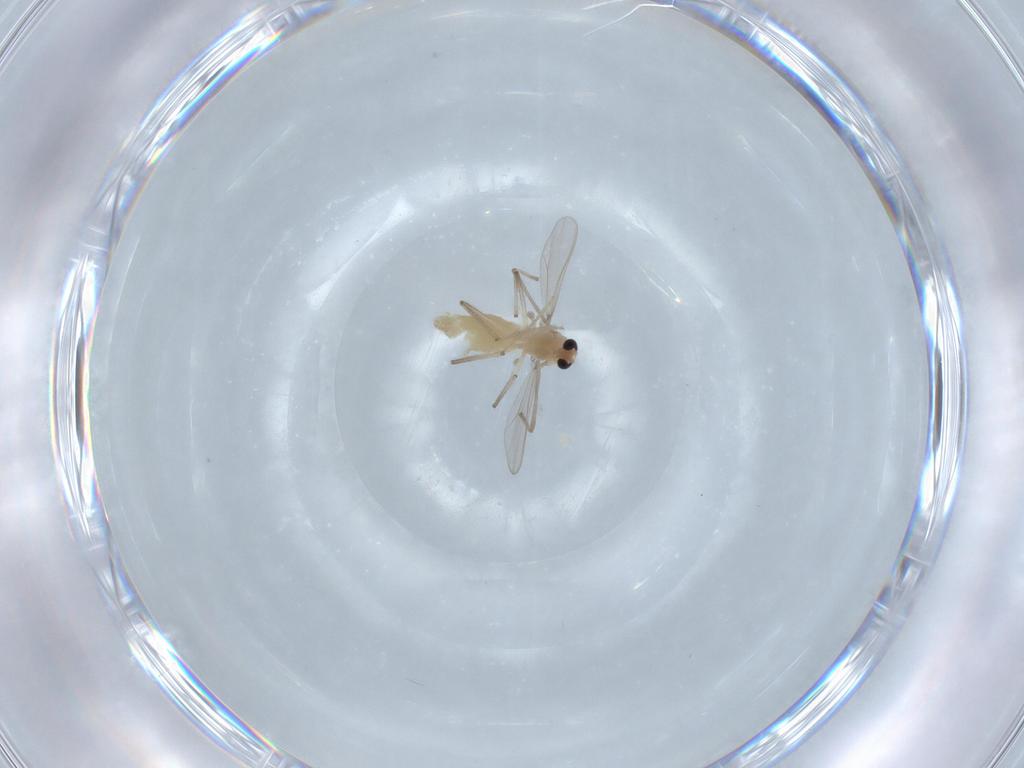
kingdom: Animalia
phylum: Arthropoda
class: Insecta
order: Diptera
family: Chironomidae
